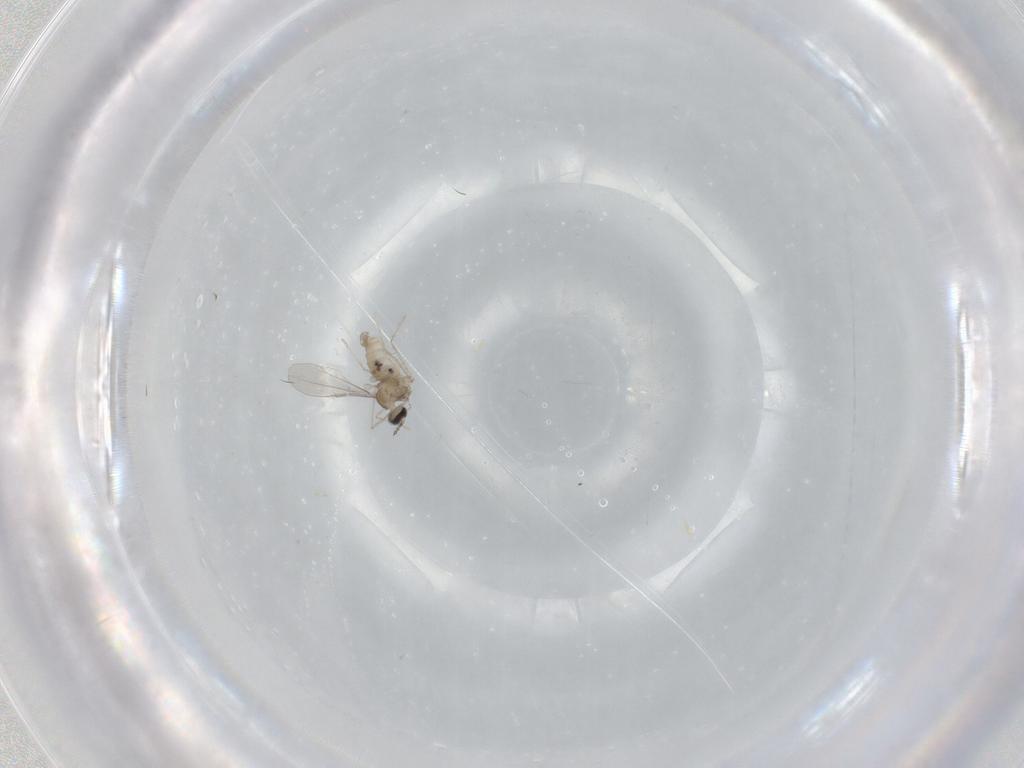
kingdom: Animalia
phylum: Arthropoda
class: Insecta
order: Diptera
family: Cecidomyiidae
